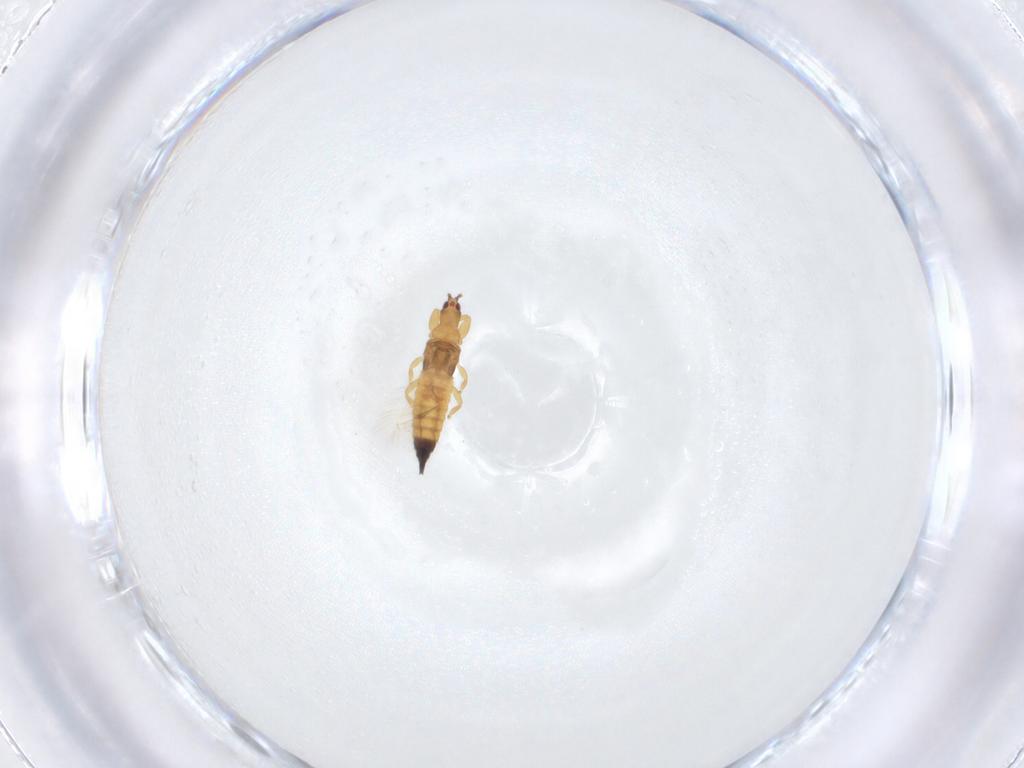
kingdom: Animalia
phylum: Arthropoda
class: Insecta
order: Thysanoptera
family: Phlaeothripidae
